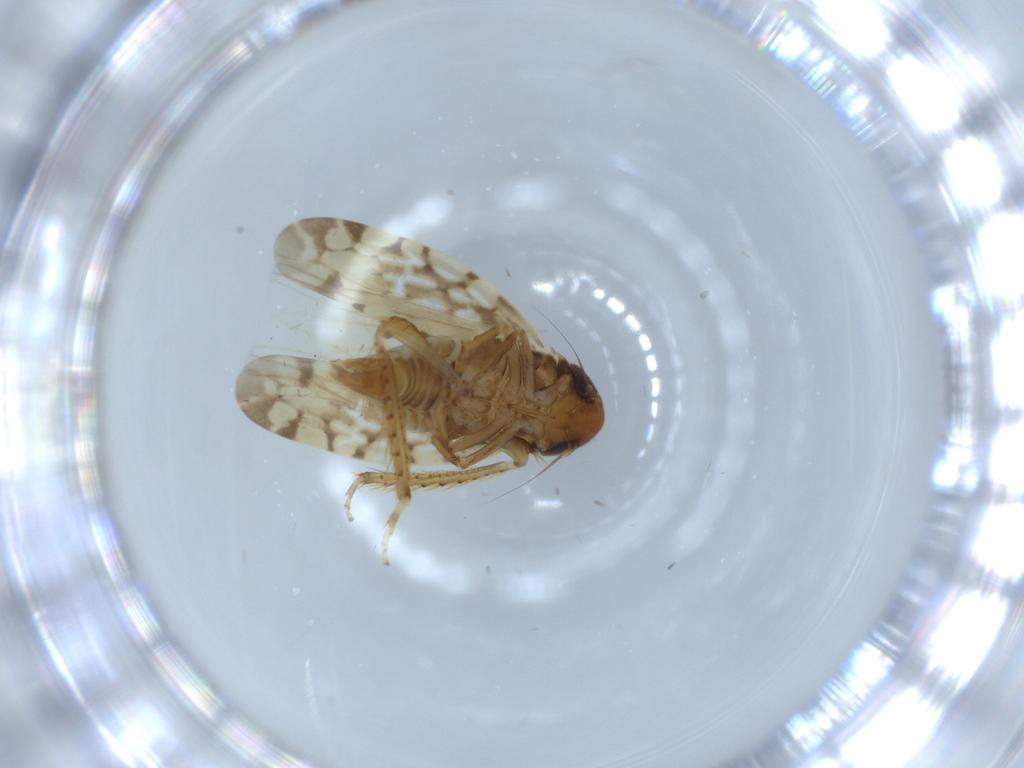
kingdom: Animalia
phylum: Arthropoda
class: Insecta
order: Hemiptera
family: Cicadellidae
